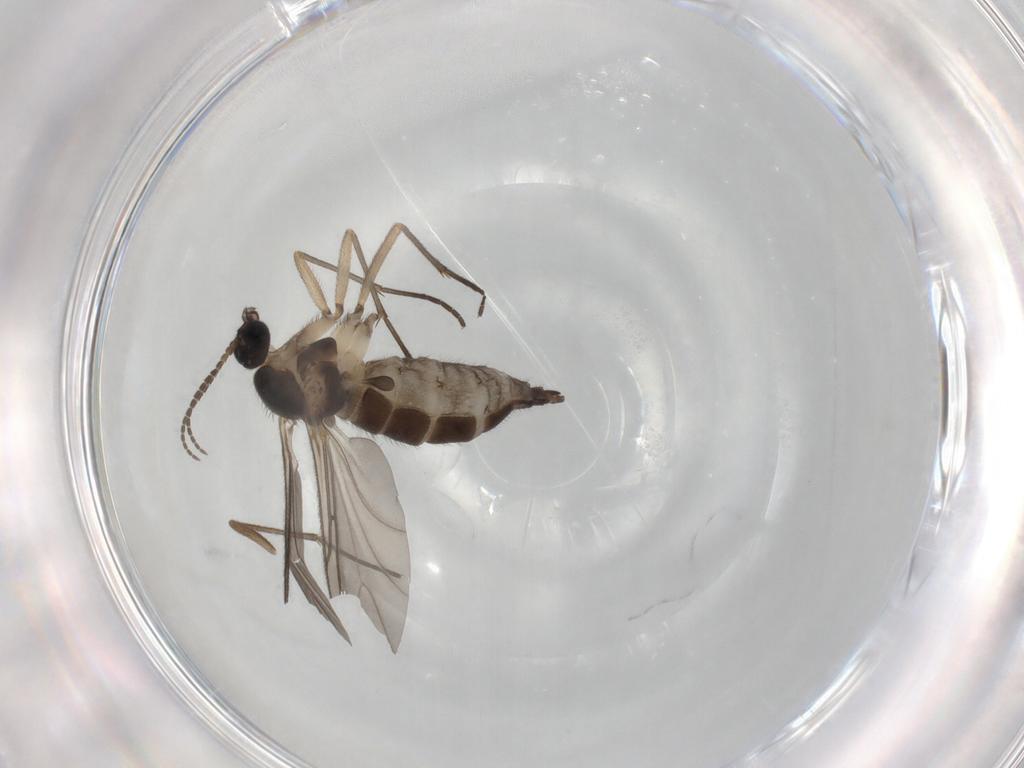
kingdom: Animalia
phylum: Arthropoda
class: Insecta
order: Diptera
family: Sciaridae
